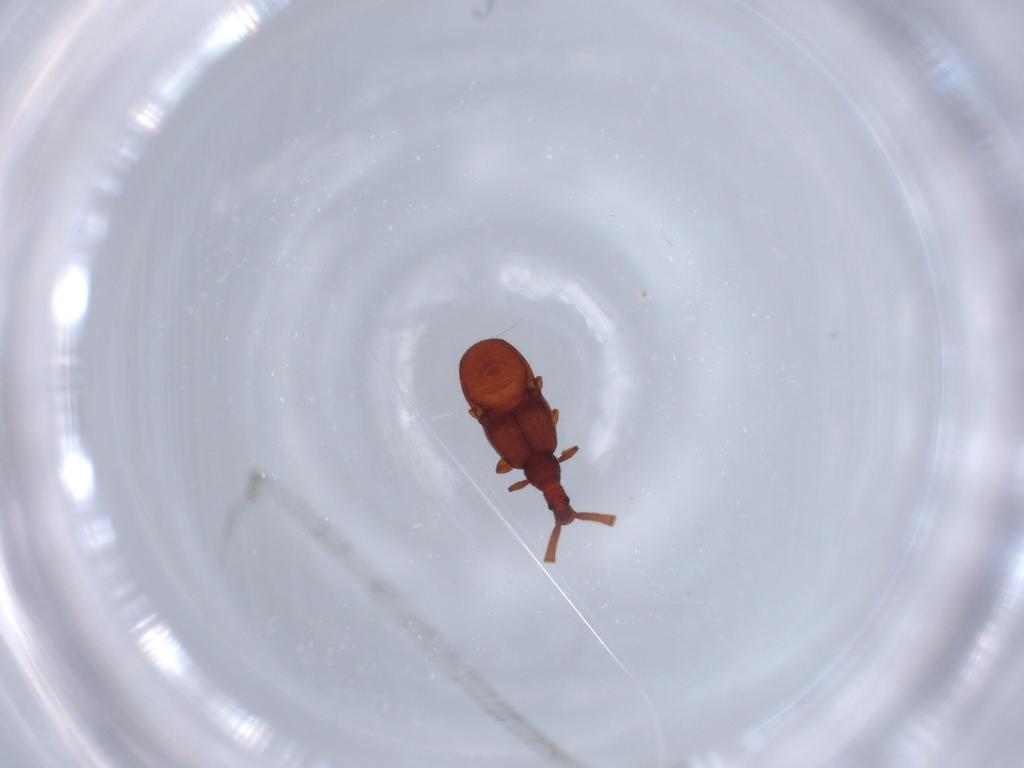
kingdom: Animalia
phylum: Arthropoda
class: Insecta
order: Coleoptera
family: Staphylinidae
